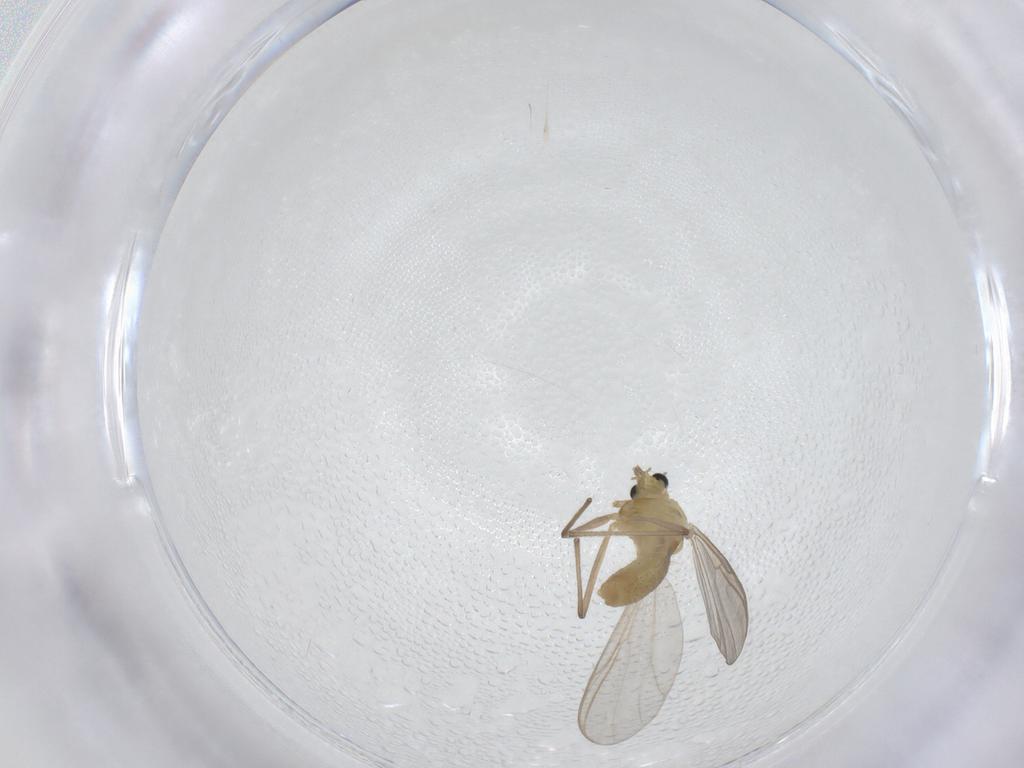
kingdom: Animalia
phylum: Arthropoda
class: Insecta
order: Diptera
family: Chironomidae
